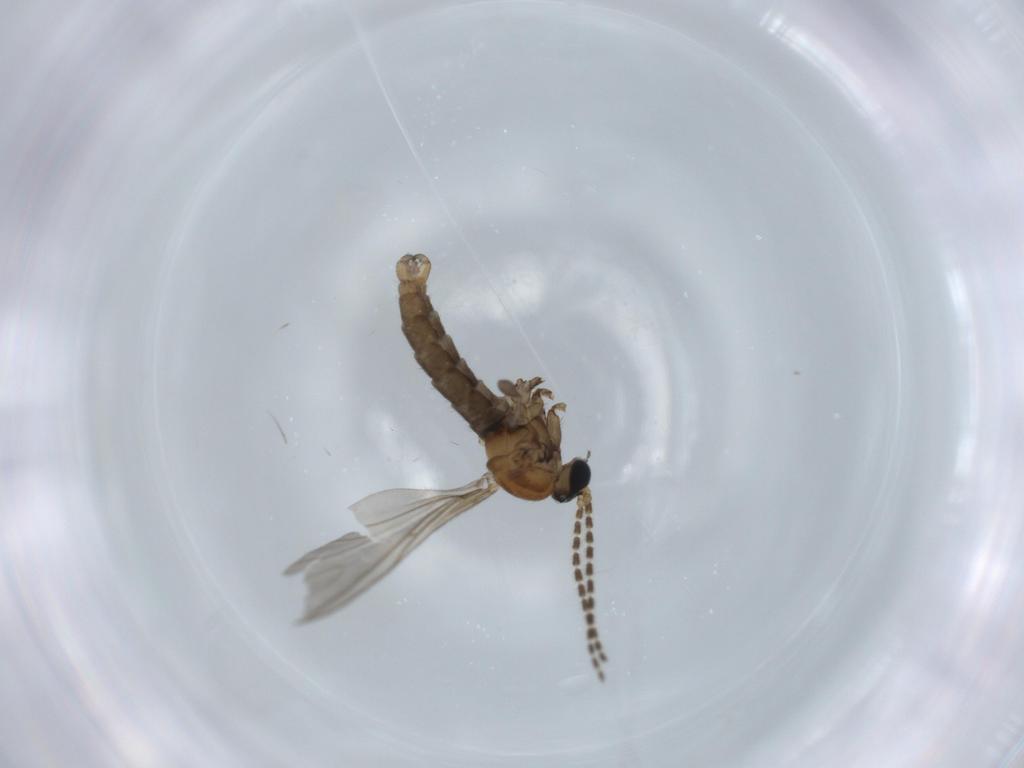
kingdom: Animalia
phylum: Arthropoda
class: Insecta
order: Diptera
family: Sciaridae
